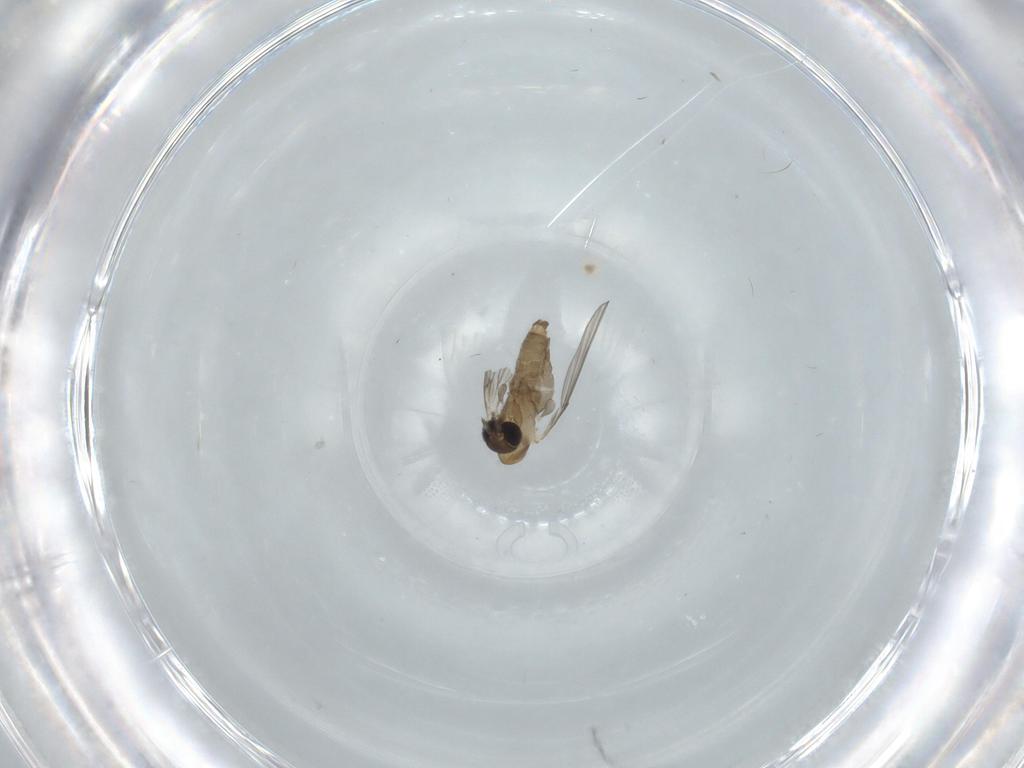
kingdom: Animalia
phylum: Arthropoda
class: Insecta
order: Diptera
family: Psychodidae
